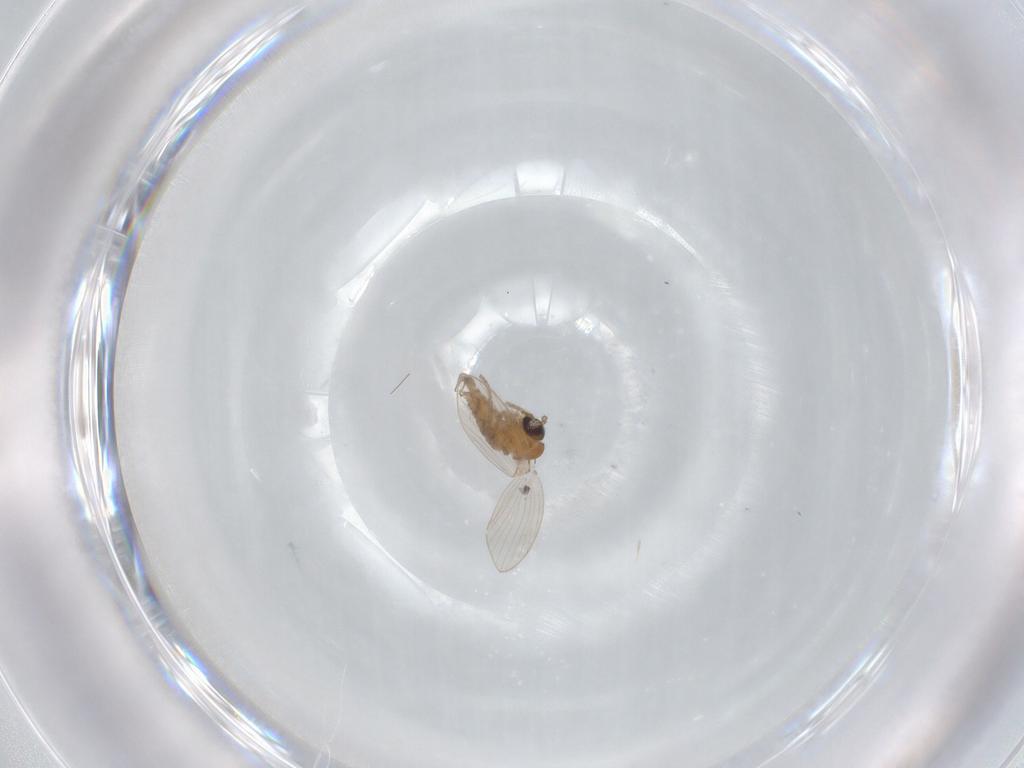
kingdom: Animalia
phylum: Arthropoda
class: Insecta
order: Diptera
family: Psychodidae
